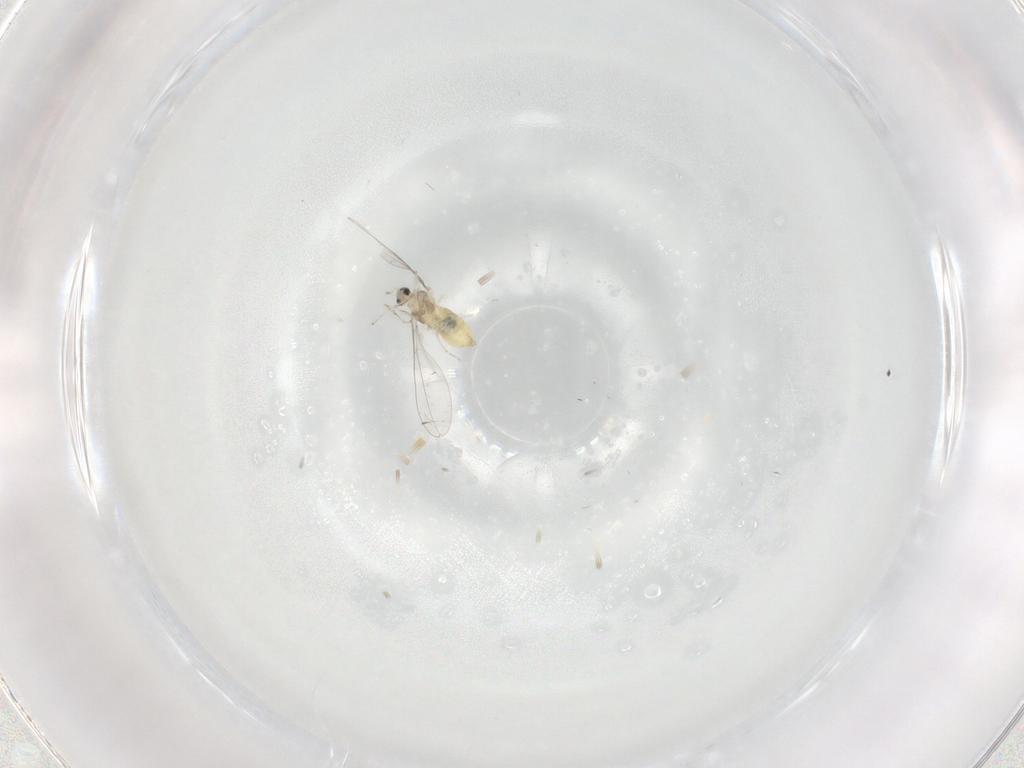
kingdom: Animalia
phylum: Arthropoda
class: Insecta
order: Diptera
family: Phoridae
